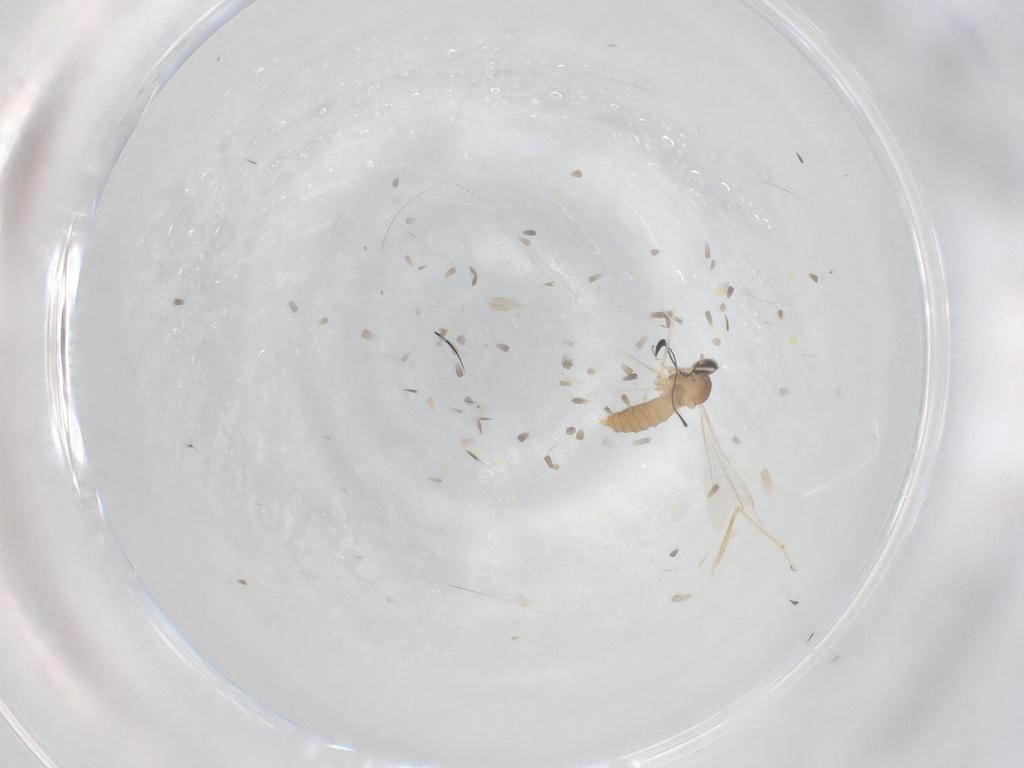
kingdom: Animalia
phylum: Arthropoda
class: Insecta
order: Diptera
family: Cecidomyiidae
